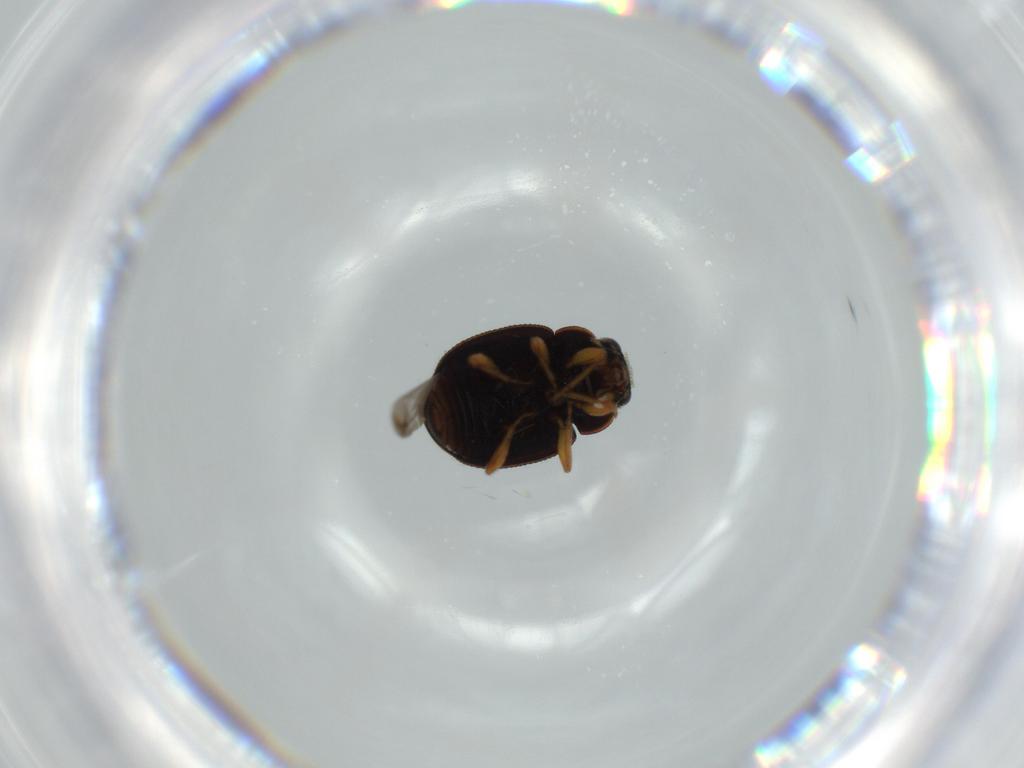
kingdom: Animalia
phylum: Arthropoda
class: Insecta
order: Coleoptera
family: Coccinellidae
